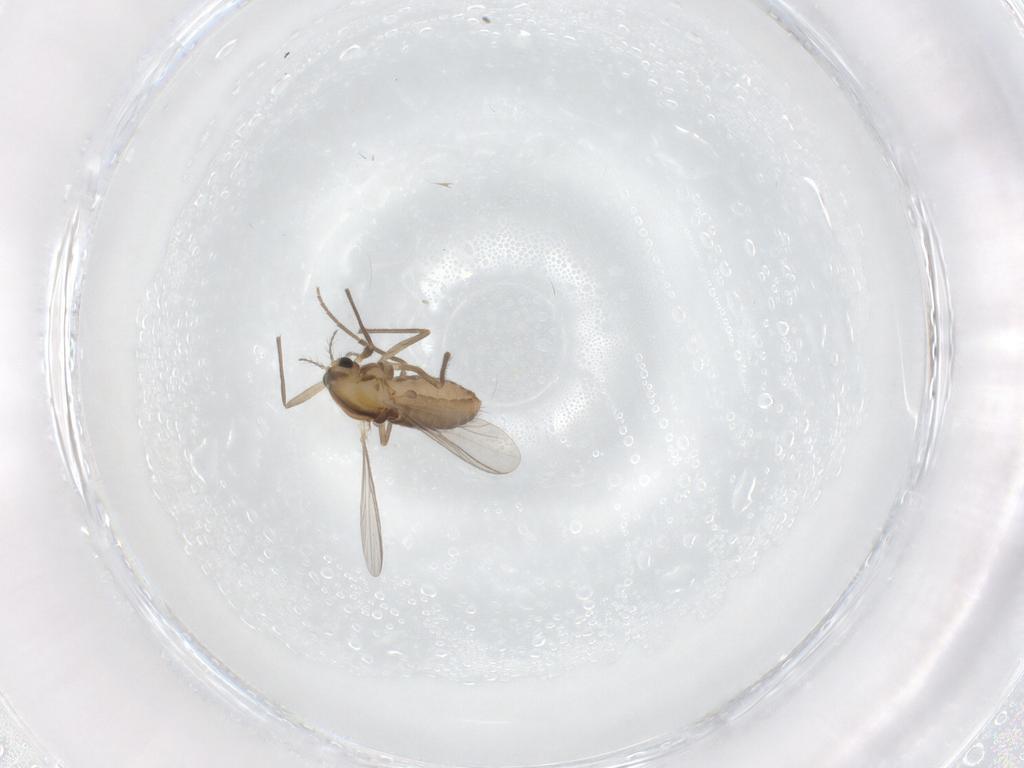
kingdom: Animalia
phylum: Arthropoda
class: Insecta
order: Diptera
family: Chironomidae
